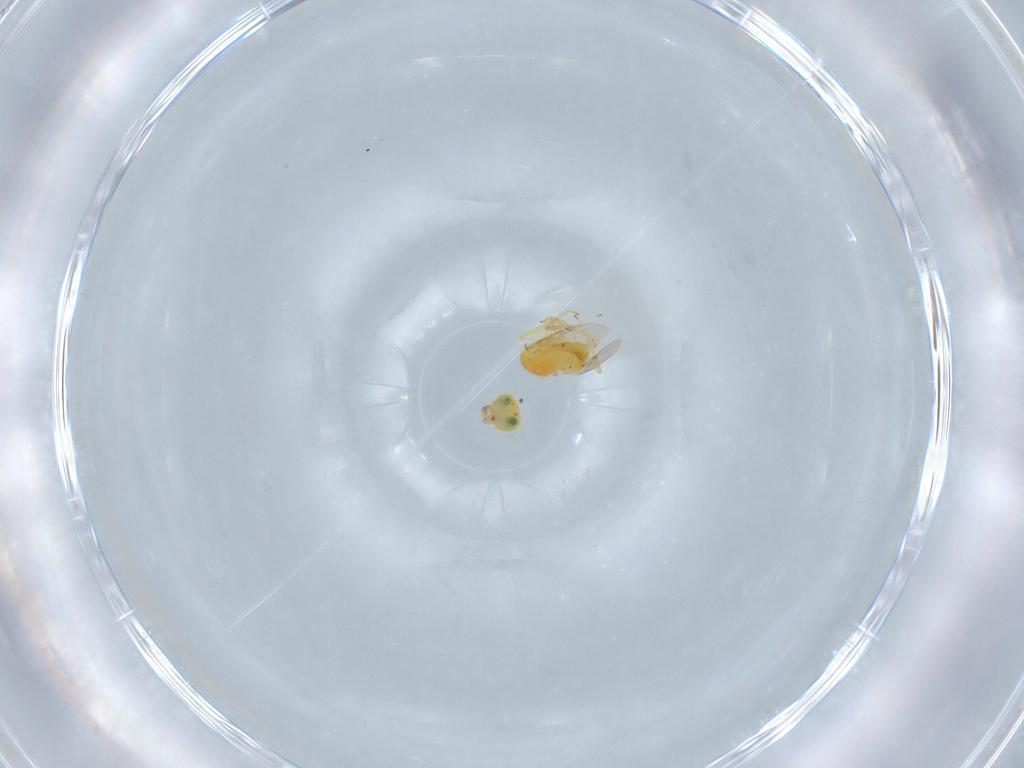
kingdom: Animalia
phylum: Arthropoda
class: Insecta
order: Hymenoptera
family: Encyrtidae
